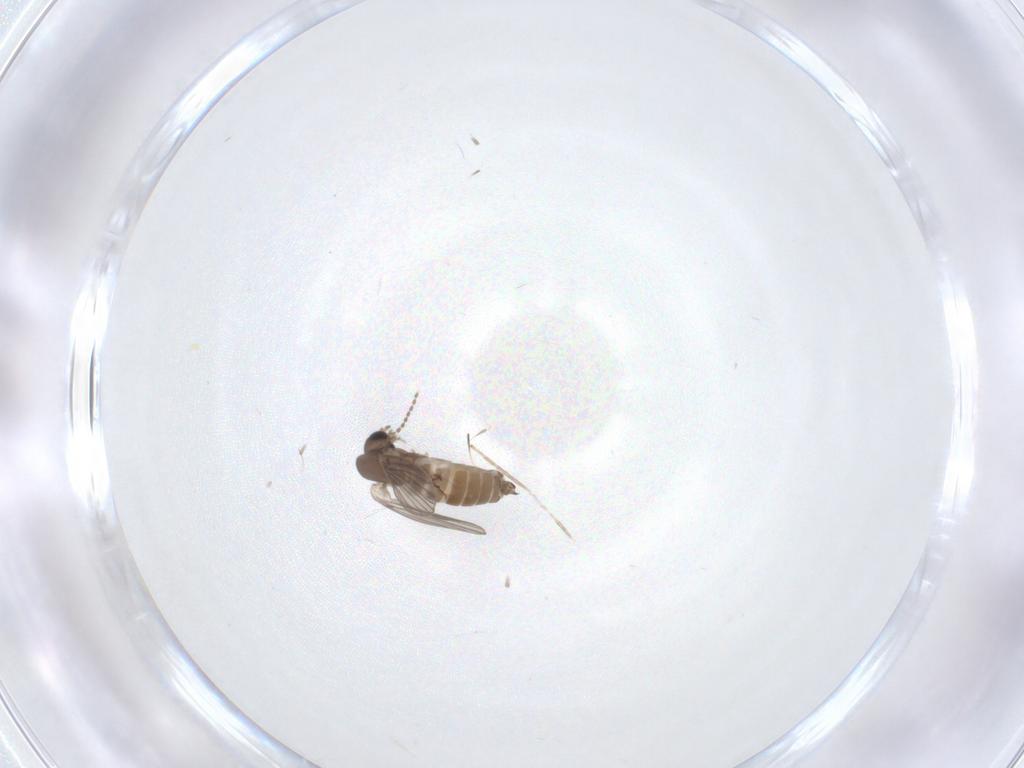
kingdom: Animalia
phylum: Arthropoda
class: Insecta
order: Diptera
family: Cecidomyiidae
